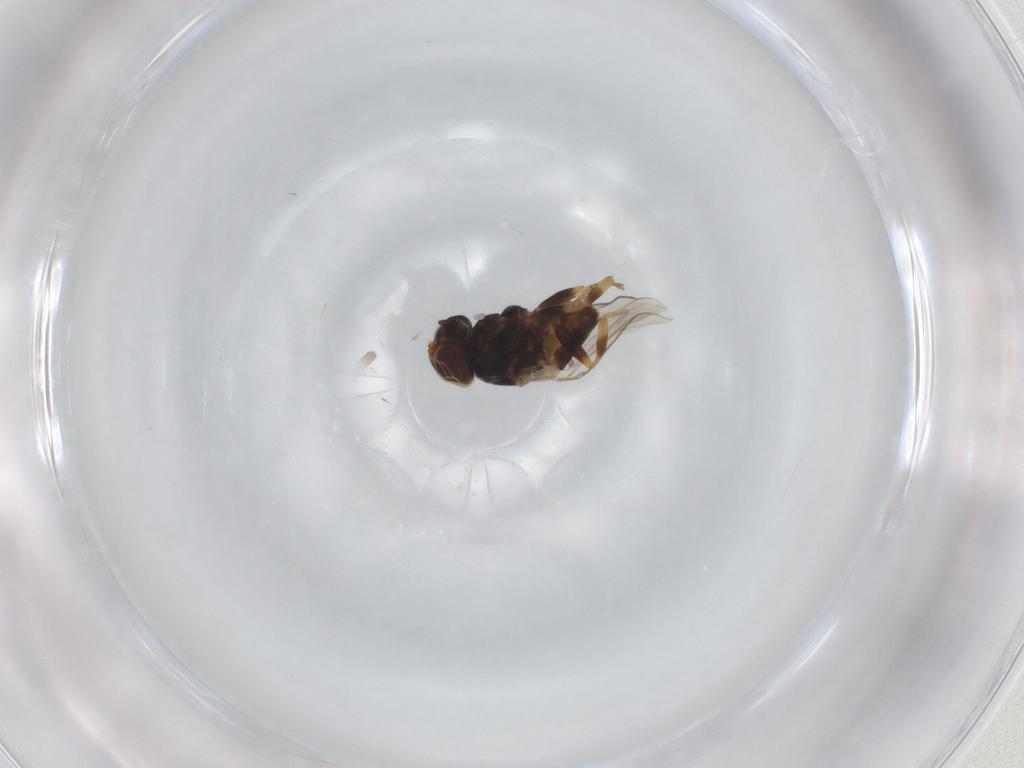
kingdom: Animalia
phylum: Arthropoda
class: Insecta
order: Diptera
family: Chloropidae
